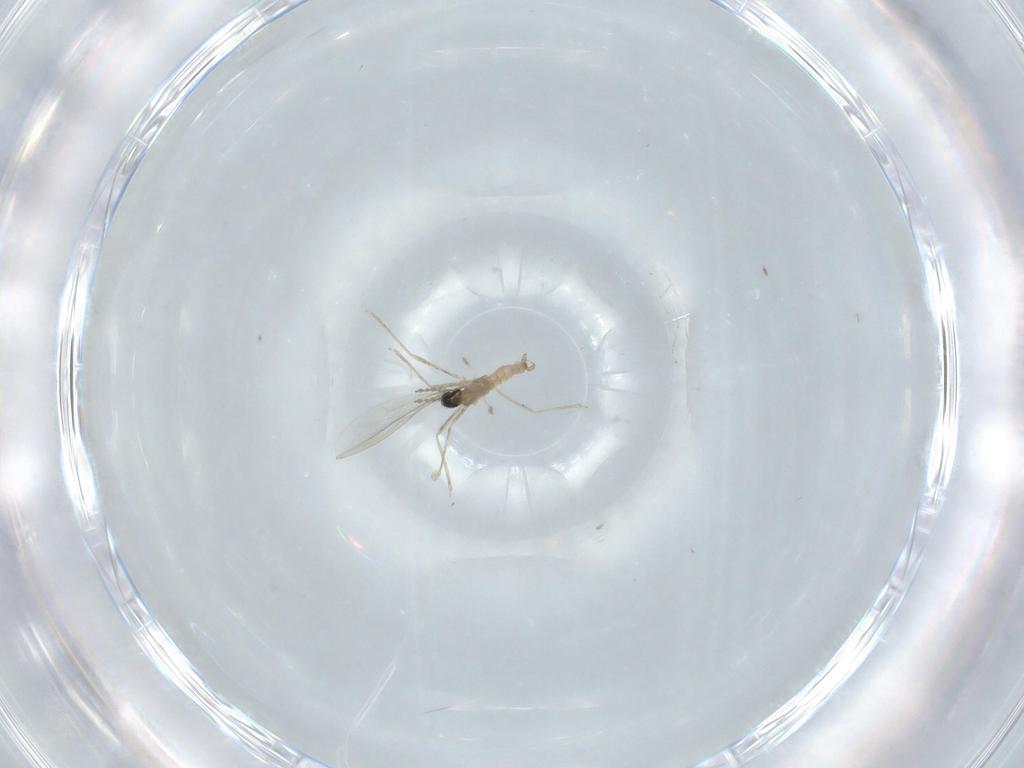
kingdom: Animalia
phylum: Arthropoda
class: Insecta
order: Diptera
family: Cecidomyiidae
